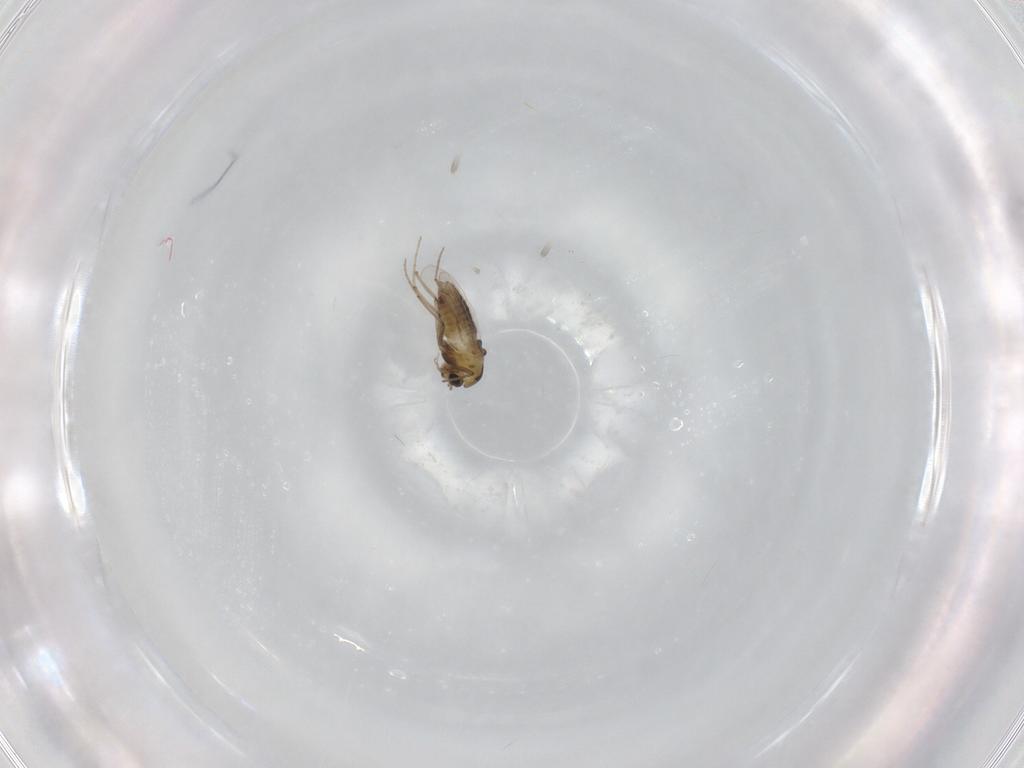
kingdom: Animalia
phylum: Arthropoda
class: Insecta
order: Diptera
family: Chironomidae
